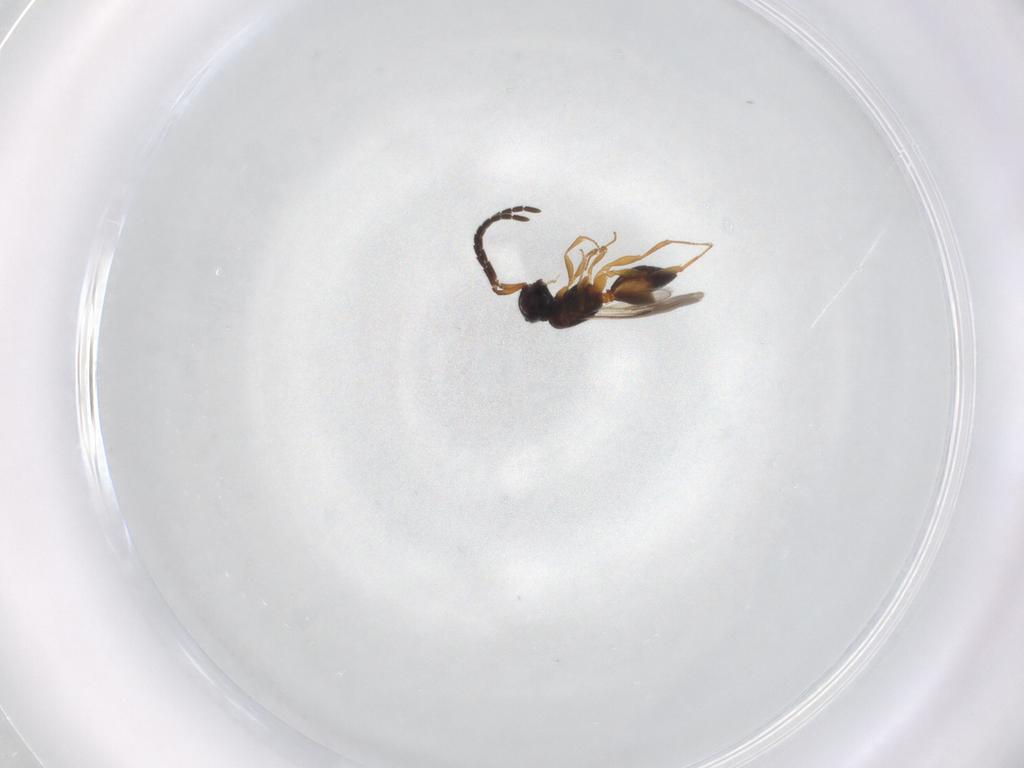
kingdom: Animalia
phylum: Arthropoda
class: Insecta
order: Hymenoptera
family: Megaspilidae
